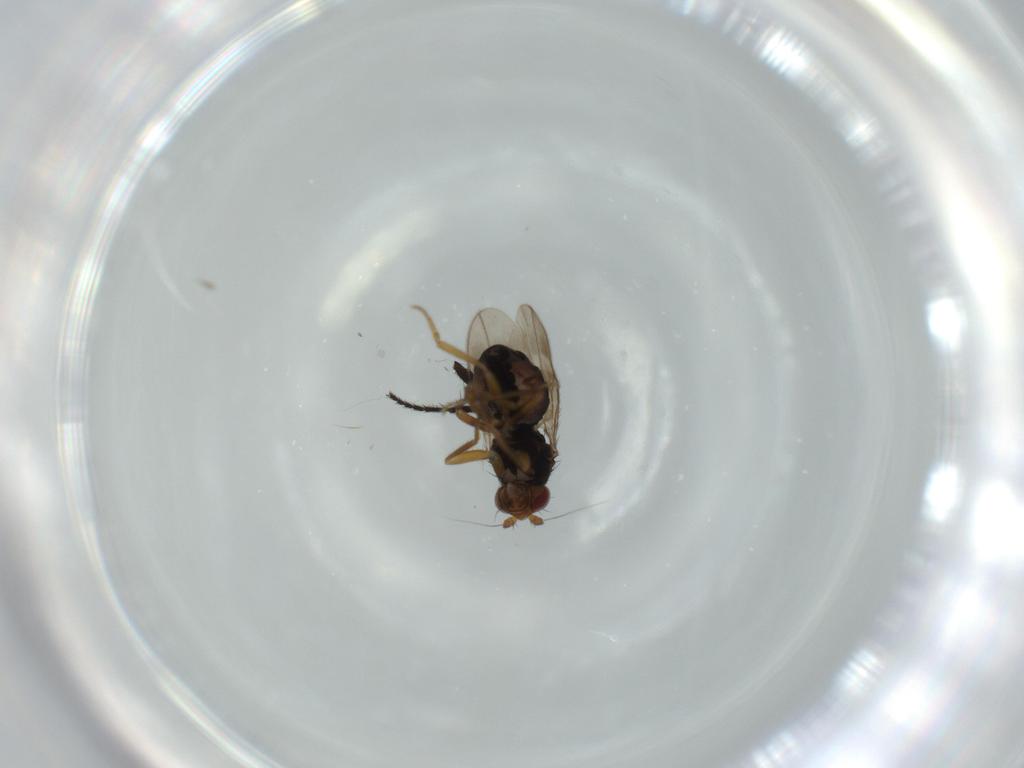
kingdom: Animalia
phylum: Arthropoda
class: Insecta
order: Diptera
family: Sphaeroceridae
